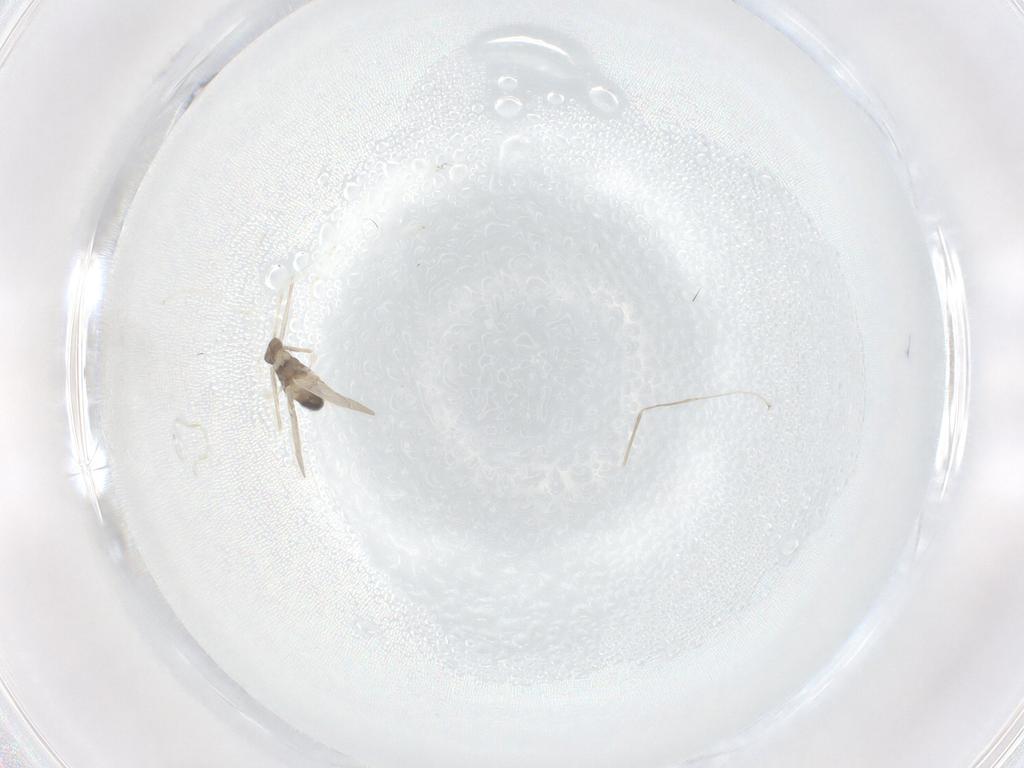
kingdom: Animalia
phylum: Arthropoda
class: Insecta
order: Diptera
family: Cecidomyiidae
